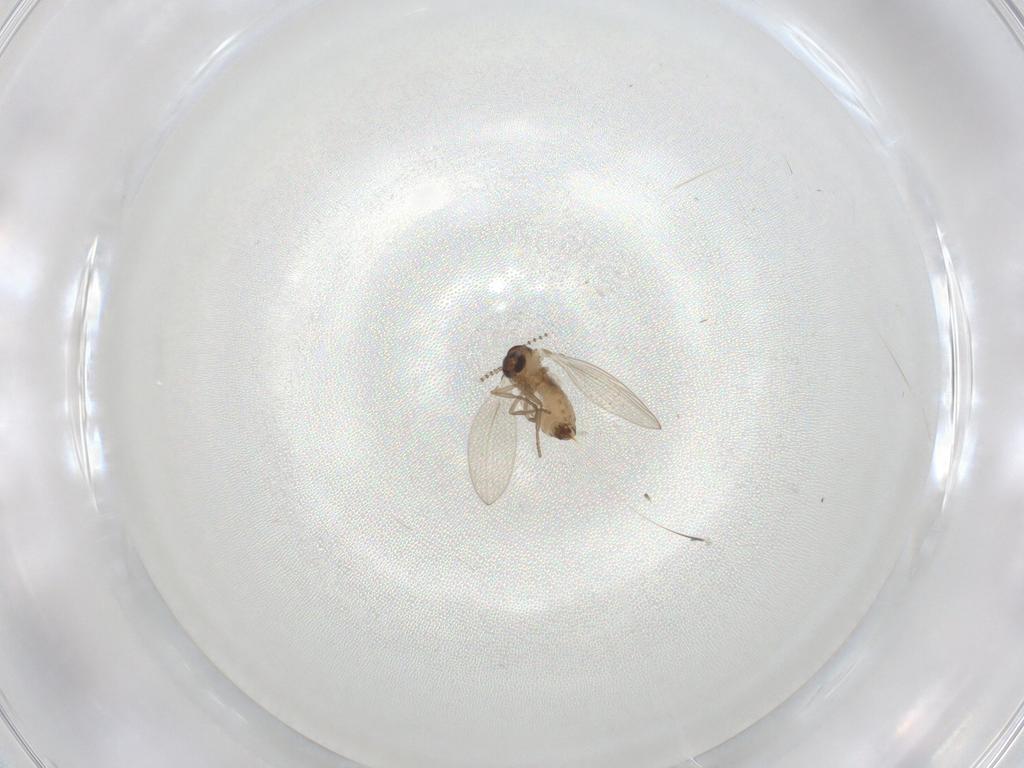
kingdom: Animalia
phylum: Arthropoda
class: Insecta
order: Diptera
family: Psychodidae
